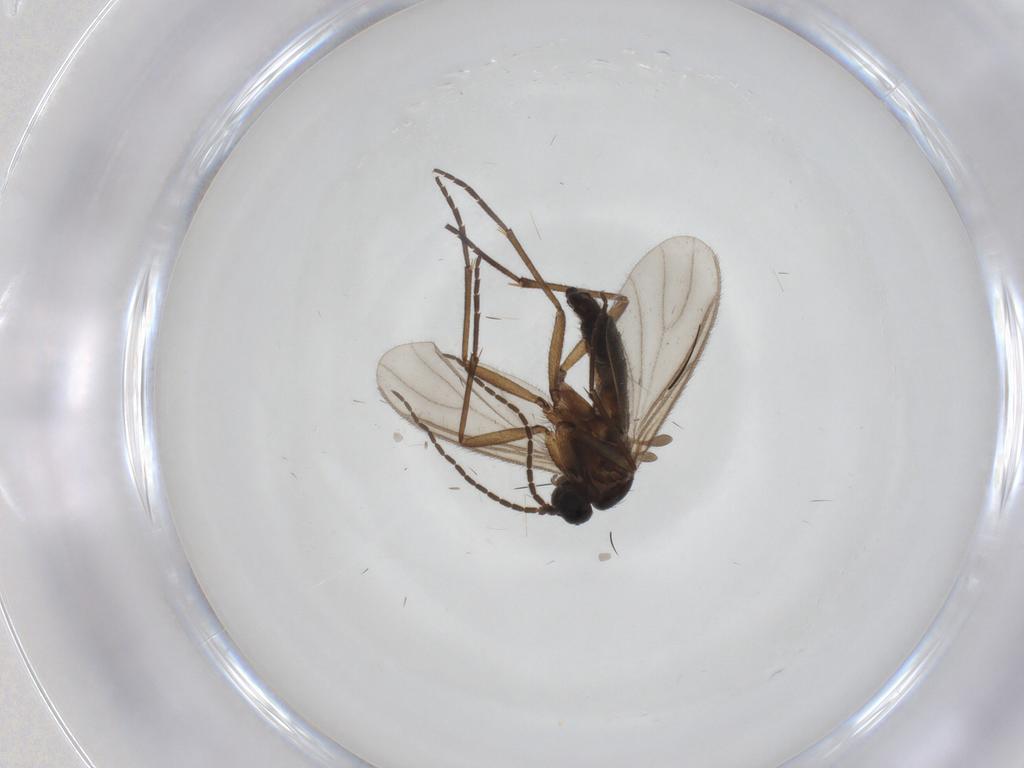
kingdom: Animalia
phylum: Arthropoda
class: Insecta
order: Diptera
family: Sciaridae
